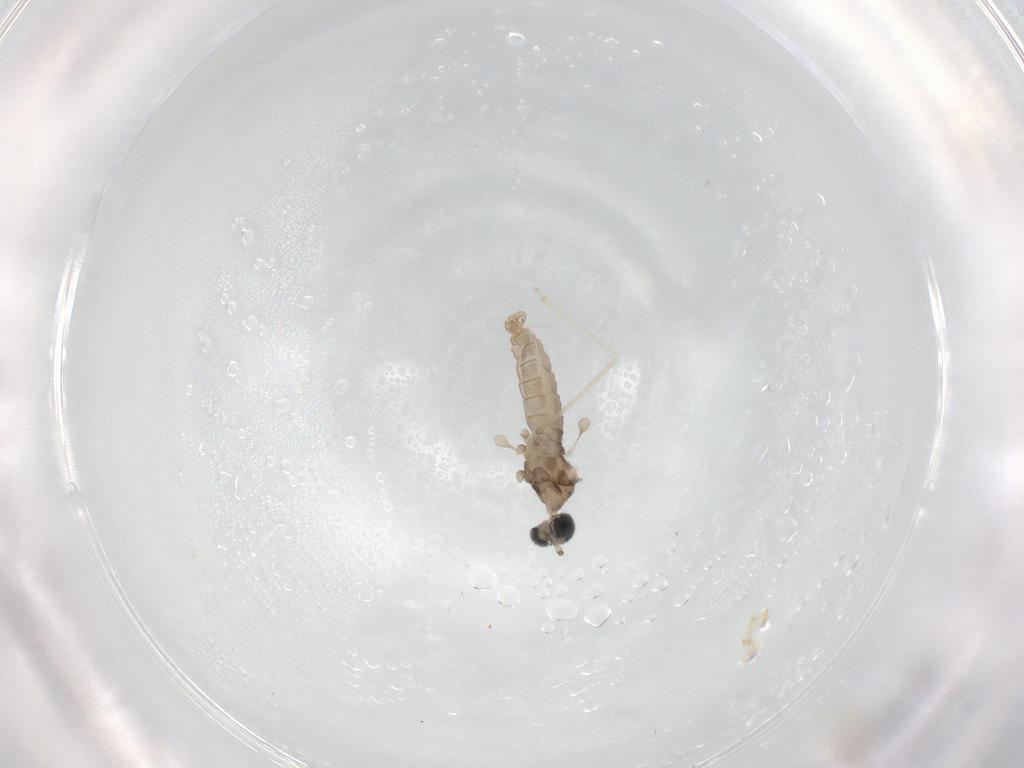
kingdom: Animalia
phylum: Arthropoda
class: Insecta
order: Diptera
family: Cecidomyiidae
